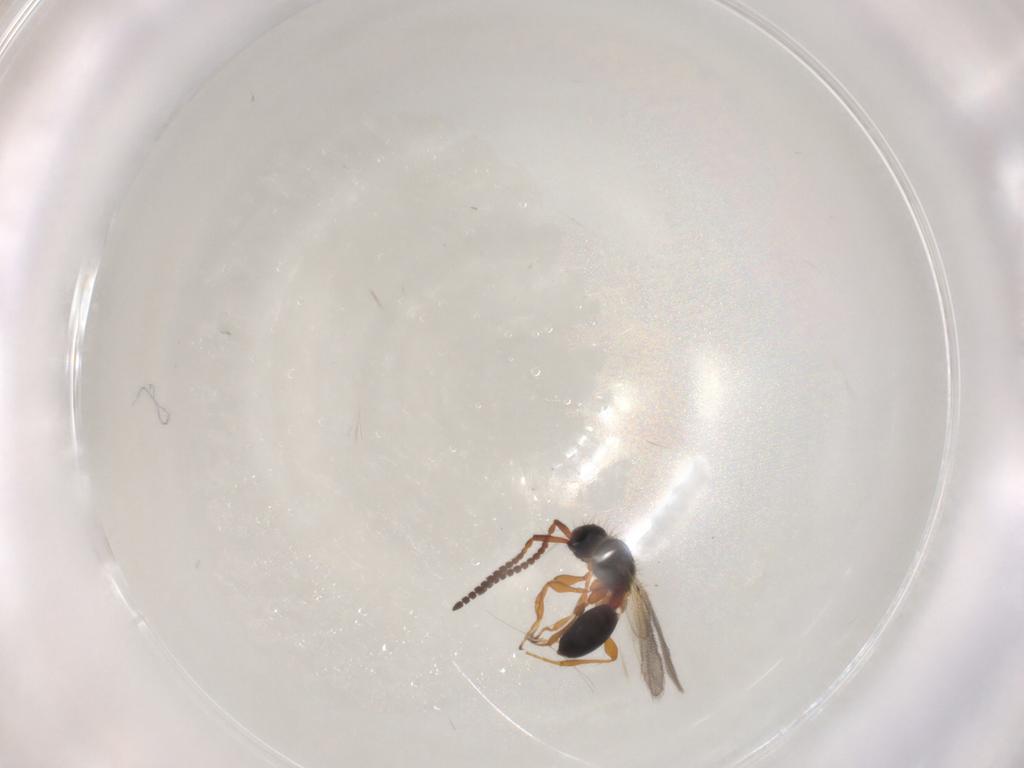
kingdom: Animalia
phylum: Arthropoda
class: Insecta
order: Hymenoptera
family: Diapriidae
